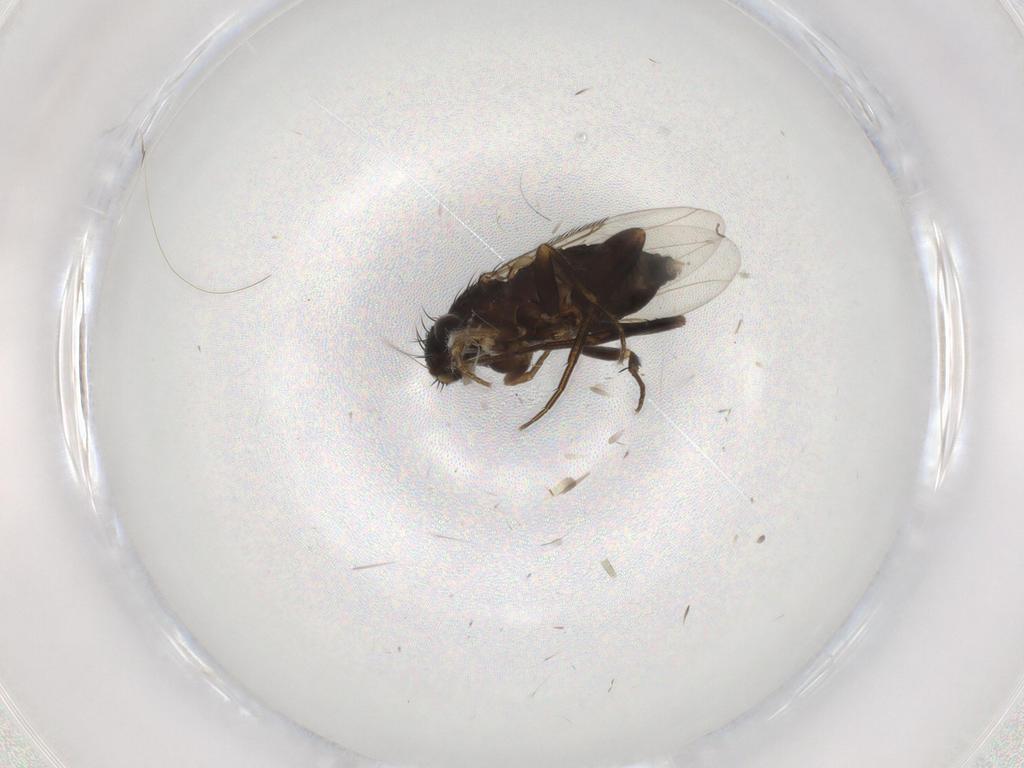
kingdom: Animalia
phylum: Arthropoda
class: Insecta
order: Diptera
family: Phoridae
